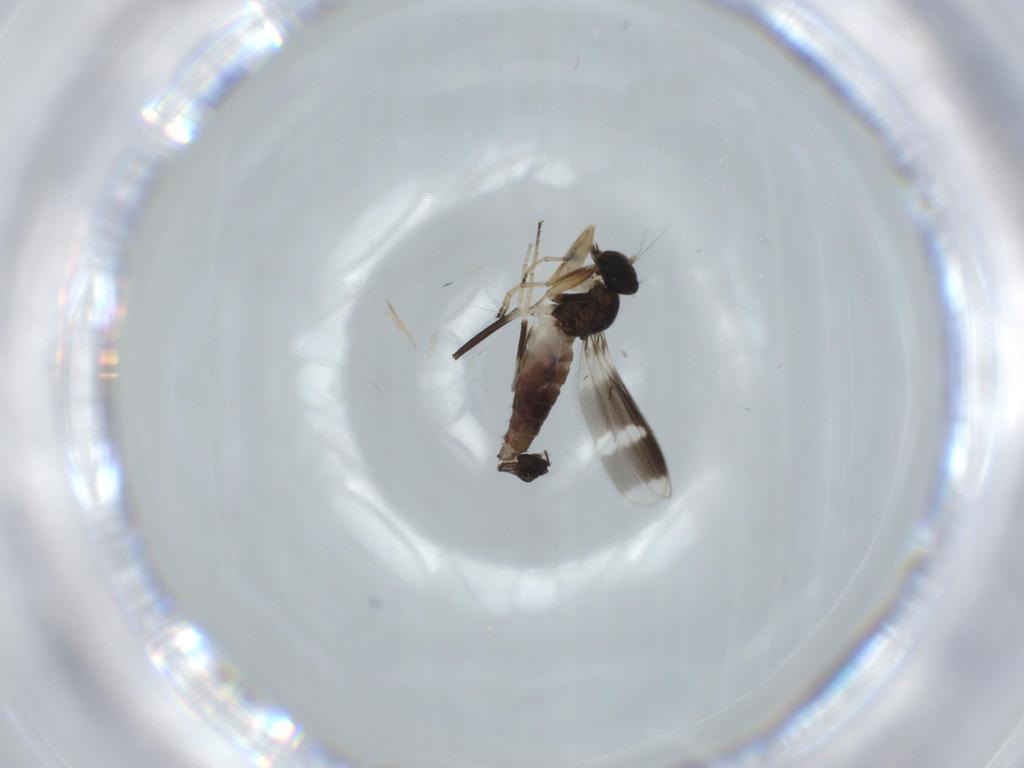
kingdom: Animalia
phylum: Arthropoda
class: Insecta
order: Diptera
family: Hybotidae
